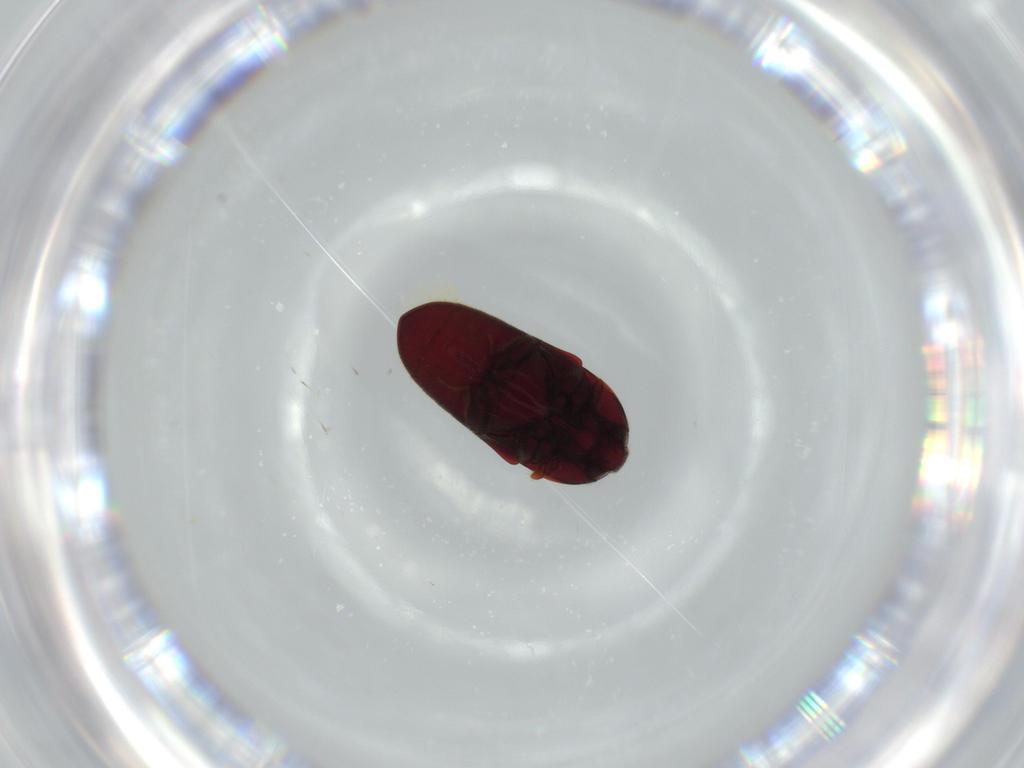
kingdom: Animalia
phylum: Arthropoda
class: Insecta
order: Coleoptera
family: Throscidae
